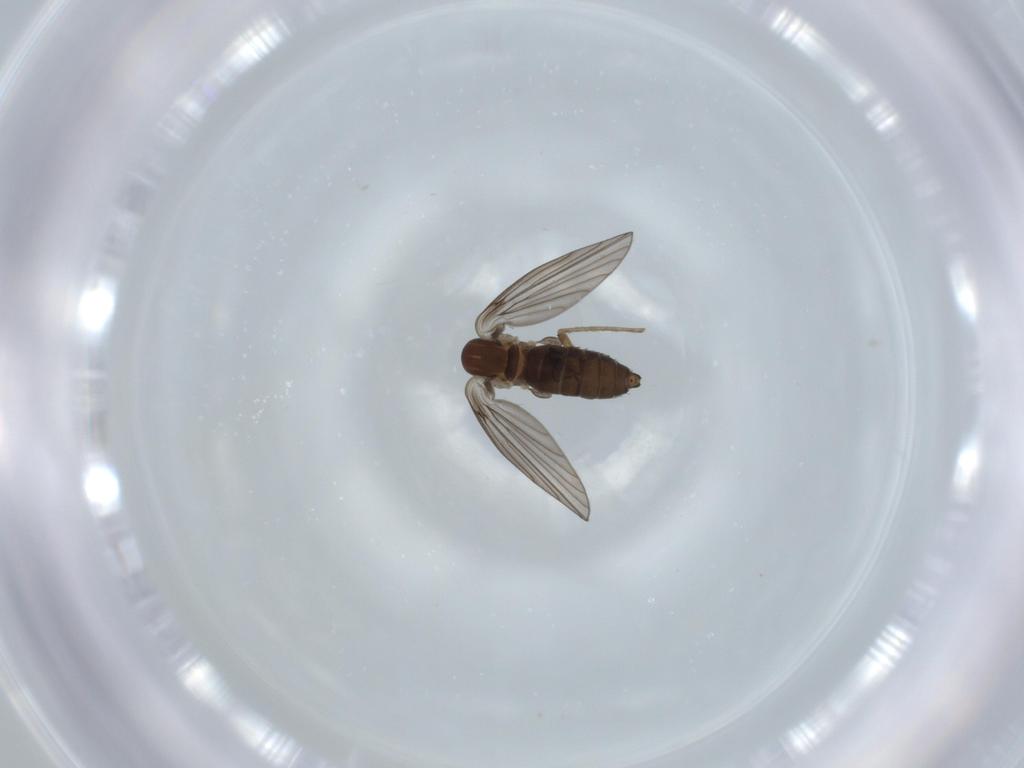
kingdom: Animalia
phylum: Arthropoda
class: Insecta
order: Diptera
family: Psychodidae
